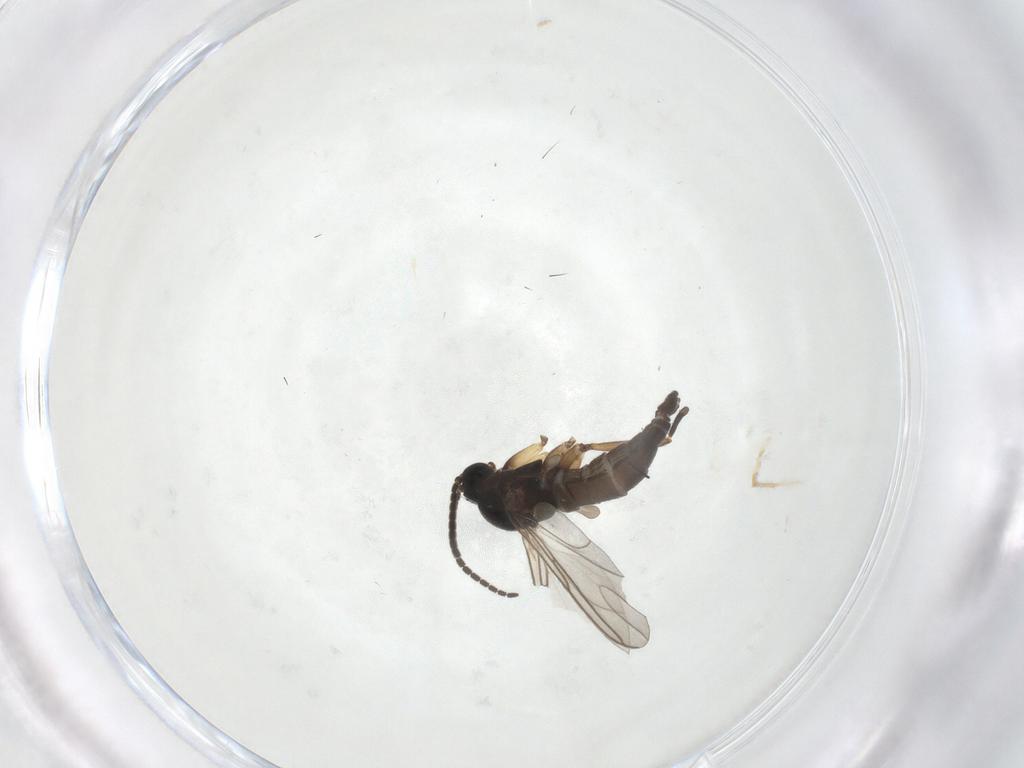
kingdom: Animalia
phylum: Arthropoda
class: Insecta
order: Diptera
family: Sciaridae
